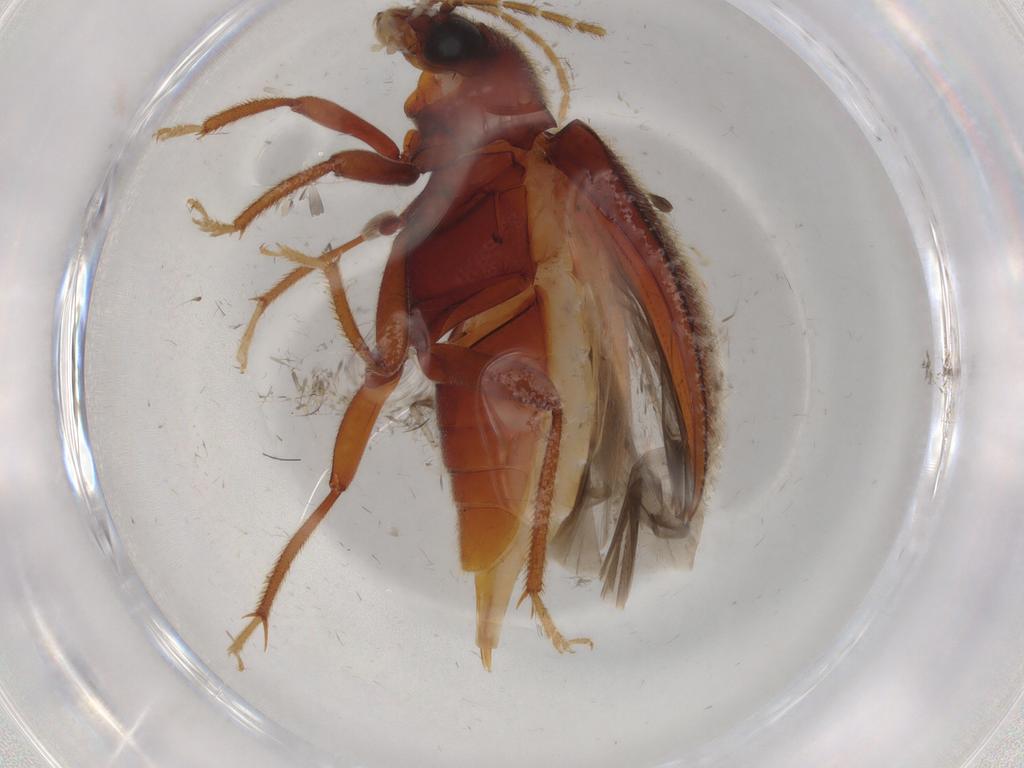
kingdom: Animalia
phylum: Arthropoda
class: Insecta
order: Coleoptera
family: Ptilodactylidae
